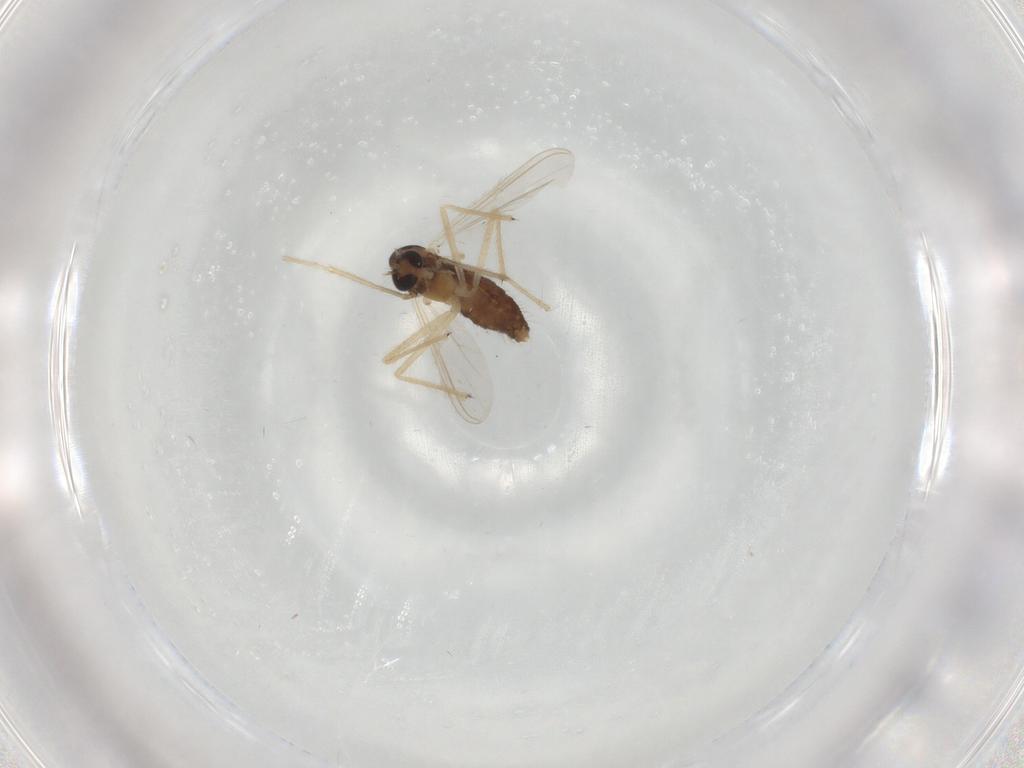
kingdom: Animalia
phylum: Arthropoda
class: Insecta
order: Diptera
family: Chironomidae
